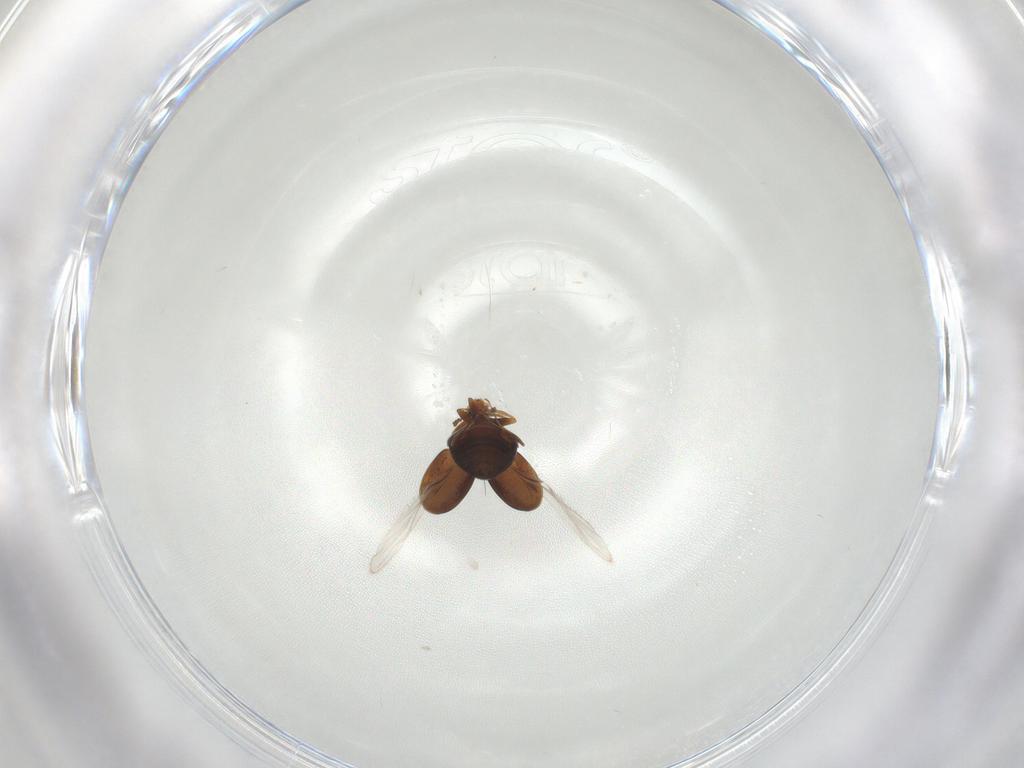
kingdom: Animalia
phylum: Arthropoda
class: Insecta
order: Coleoptera
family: Corylophidae
